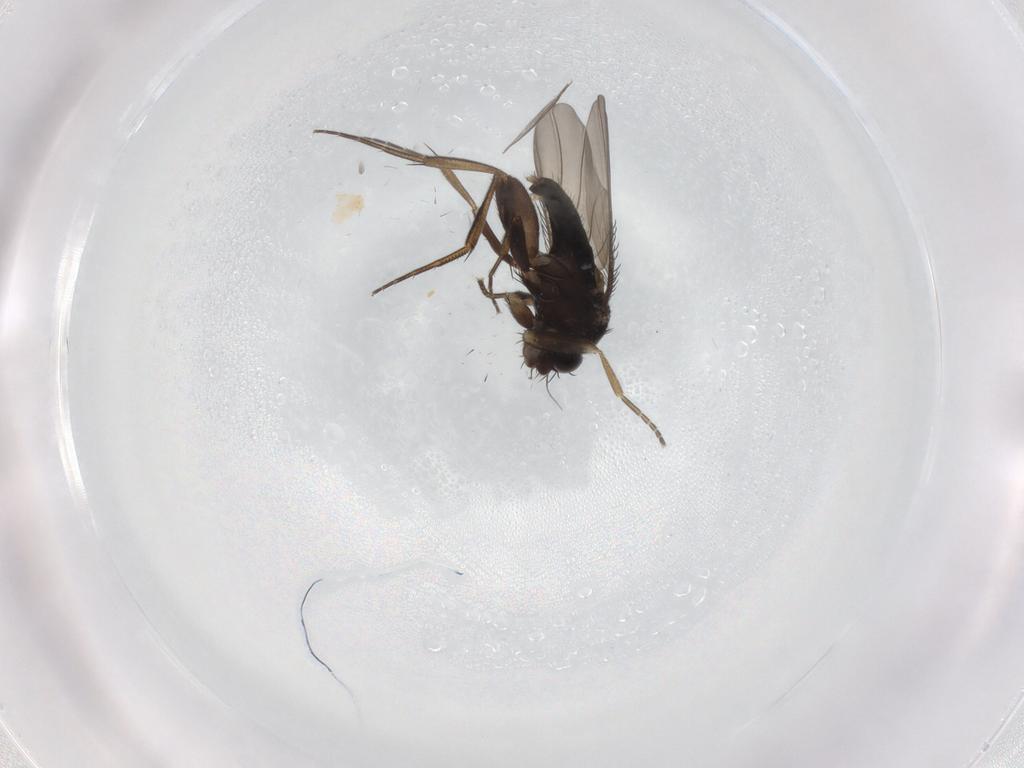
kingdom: Animalia
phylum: Arthropoda
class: Insecta
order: Diptera
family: Phoridae
